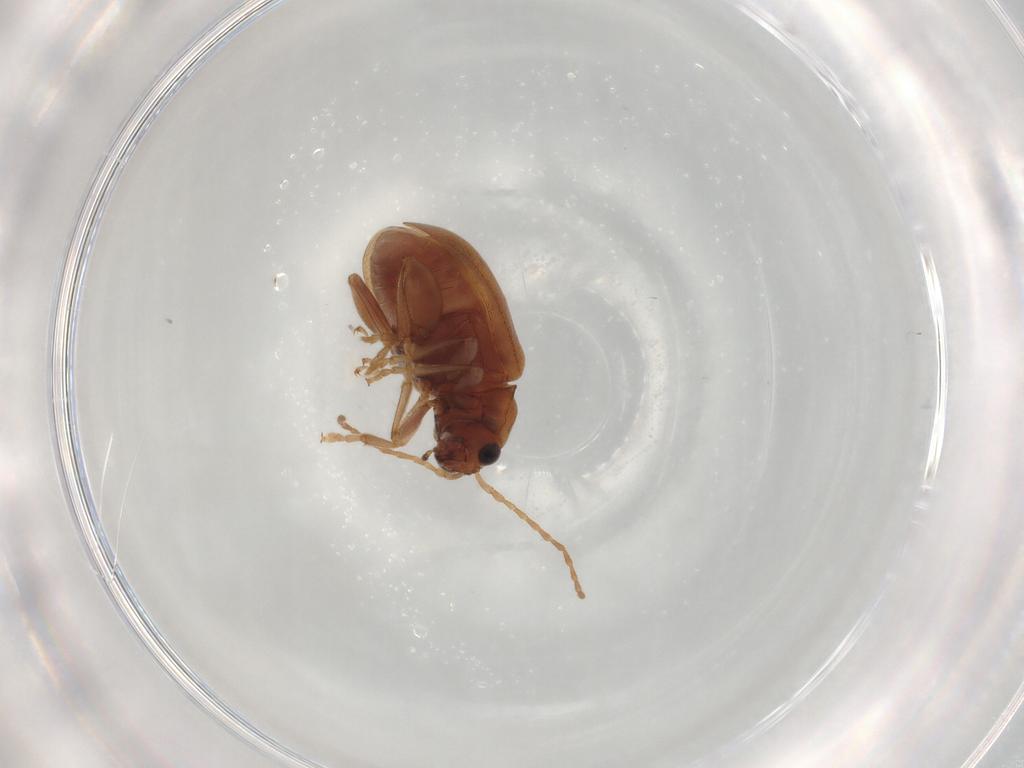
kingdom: Animalia
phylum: Arthropoda
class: Insecta
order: Coleoptera
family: Chrysomelidae
